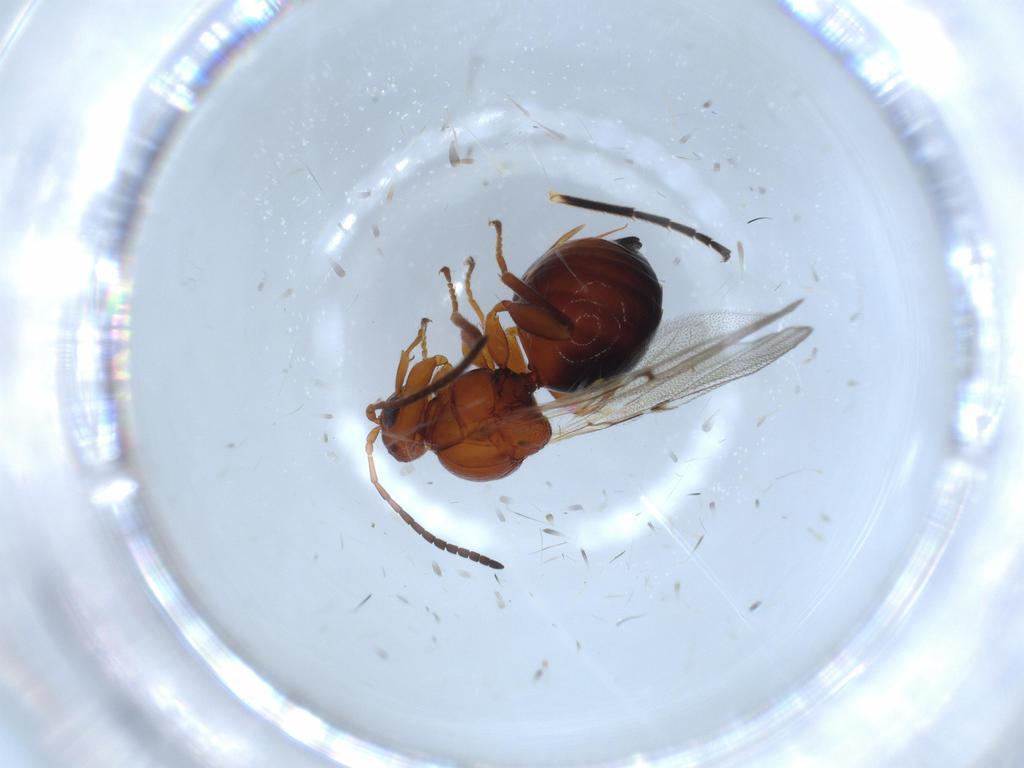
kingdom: Animalia
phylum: Arthropoda
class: Insecta
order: Hymenoptera
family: Cynipidae
